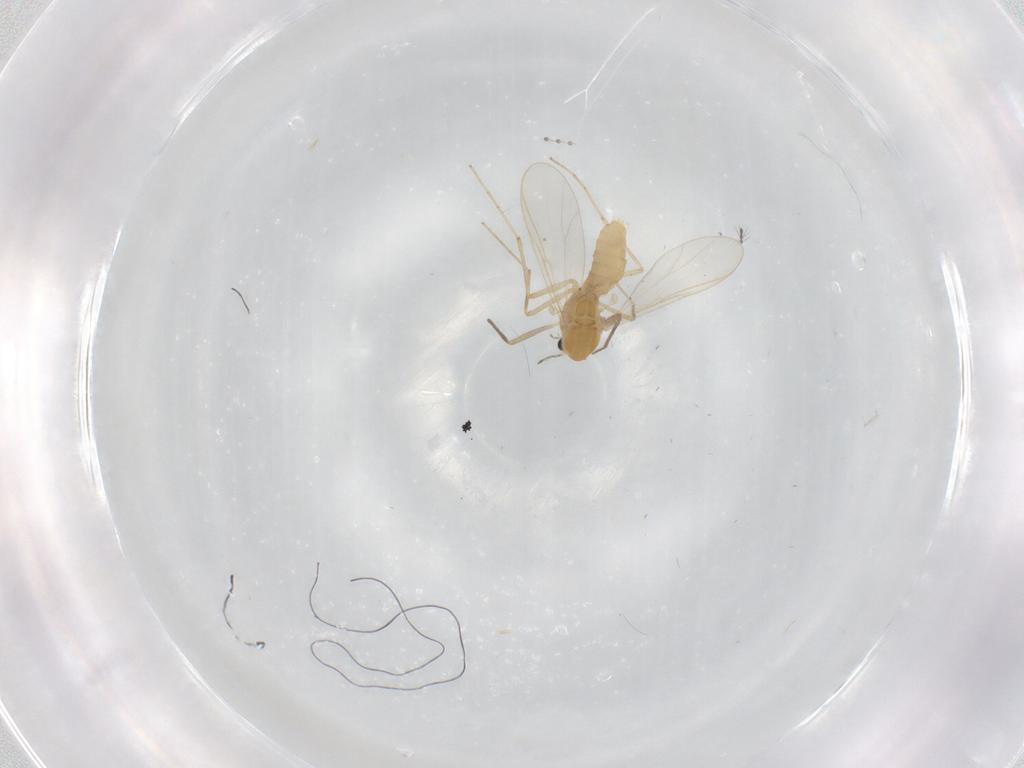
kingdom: Animalia
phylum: Arthropoda
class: Insecta
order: Diptera
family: Chironomidae
